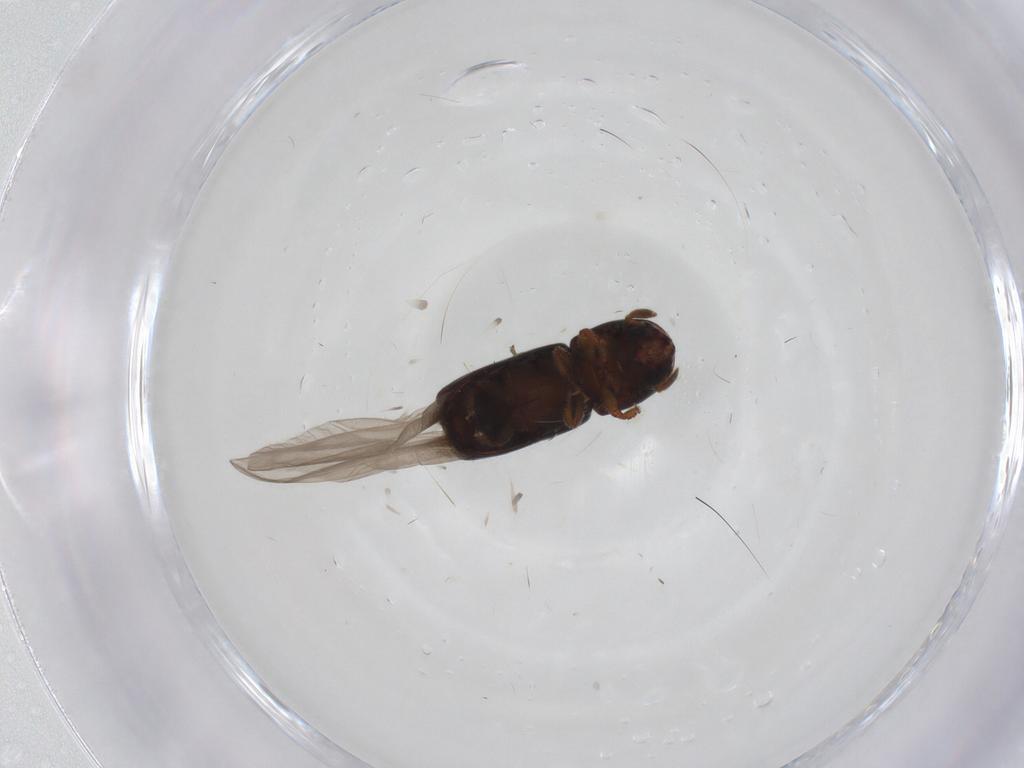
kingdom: Animalia
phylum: Arthropoda
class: Insecta
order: Coleoptera
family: Curculionidae
